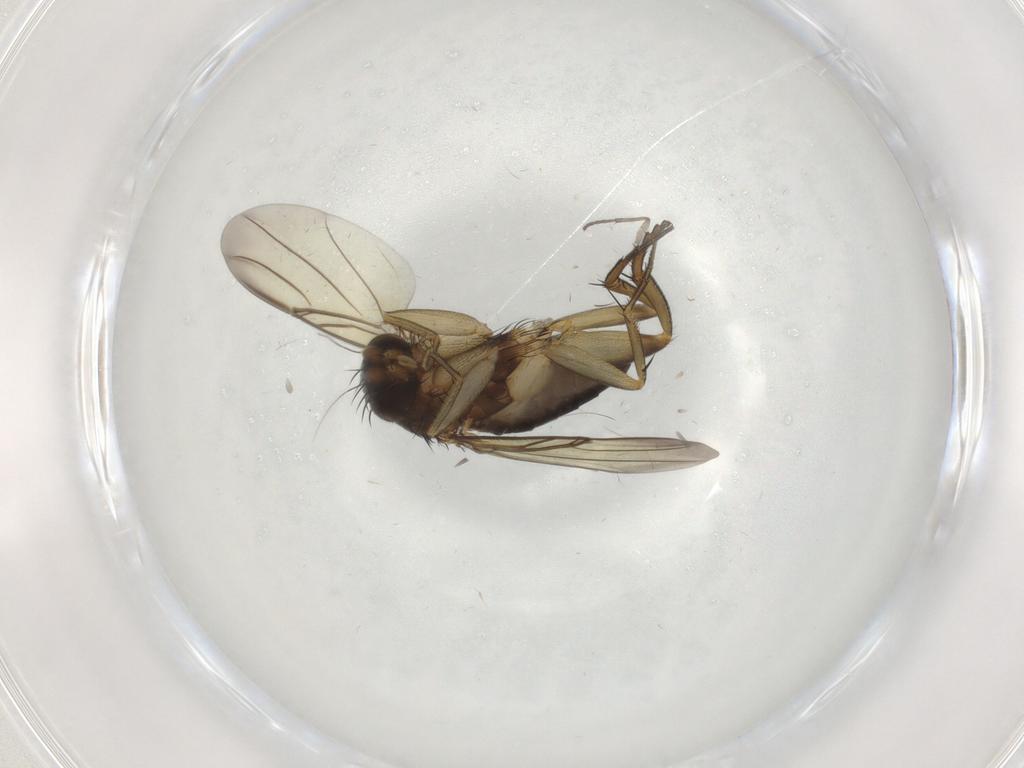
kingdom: Animalia
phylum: Arthropoda
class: Insecta
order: Diptera
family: Phoridae
